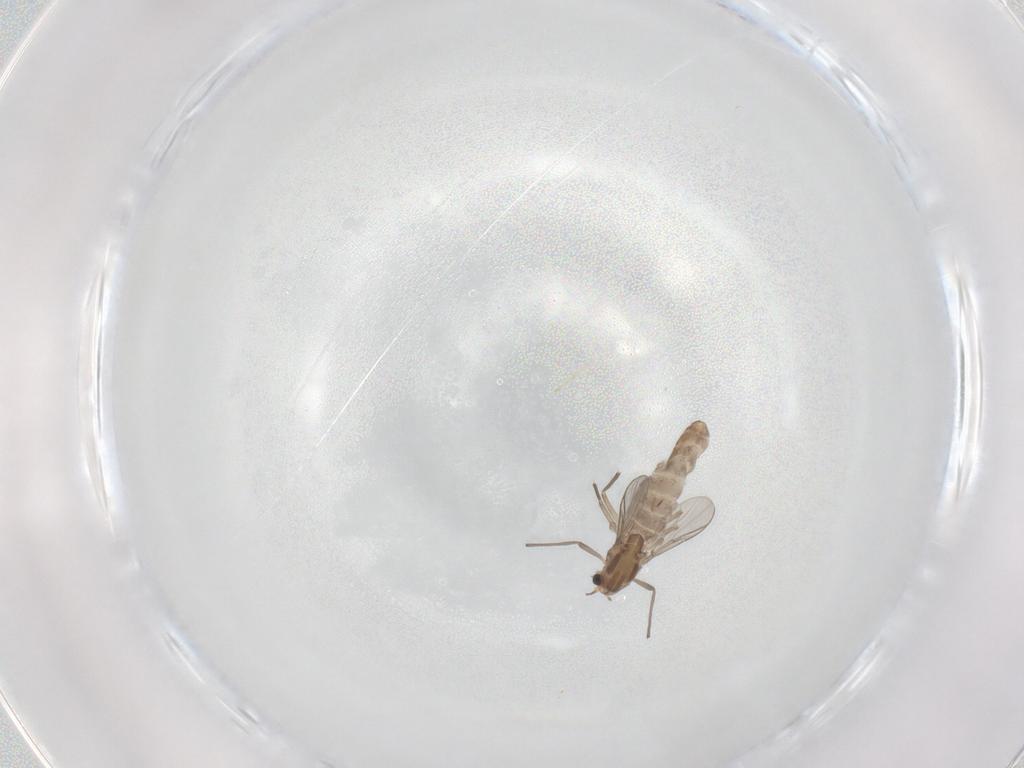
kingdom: Animalia
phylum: Arthropoda
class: Insecta
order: Diptera
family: Chironomidae
